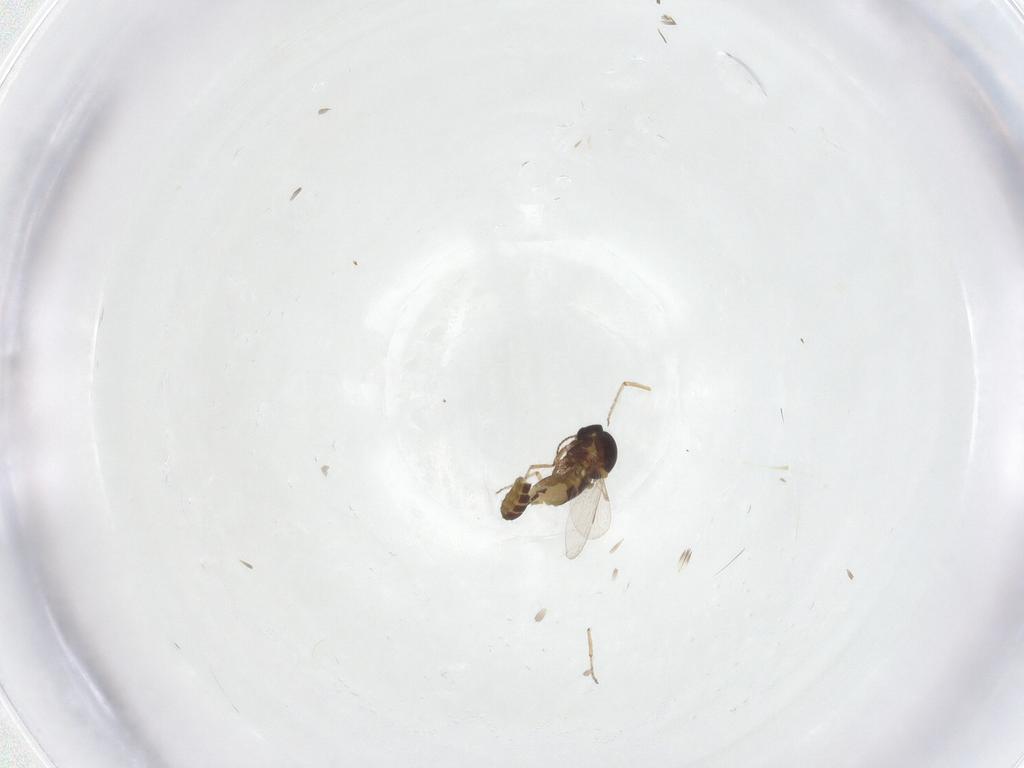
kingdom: Animalia
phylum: Arthropoda
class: Insecta
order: Diptera
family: Ceratopogonidae
